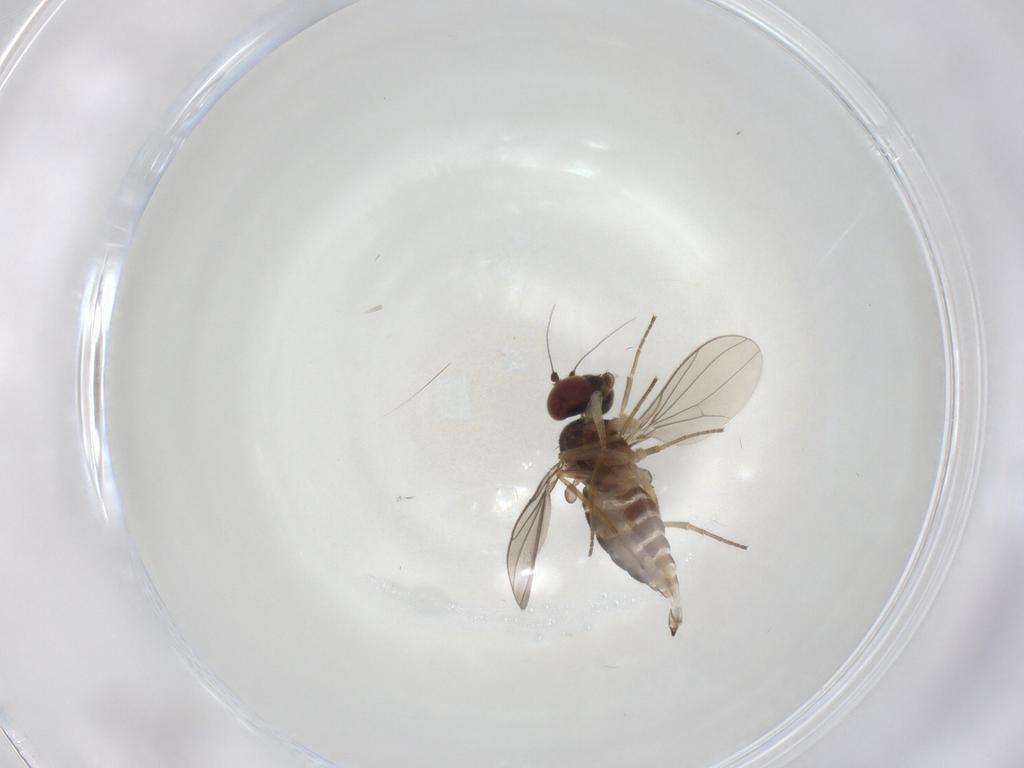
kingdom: Animalia
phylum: Arthropoda
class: Insecta
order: Diptera
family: Dolichopodidae
